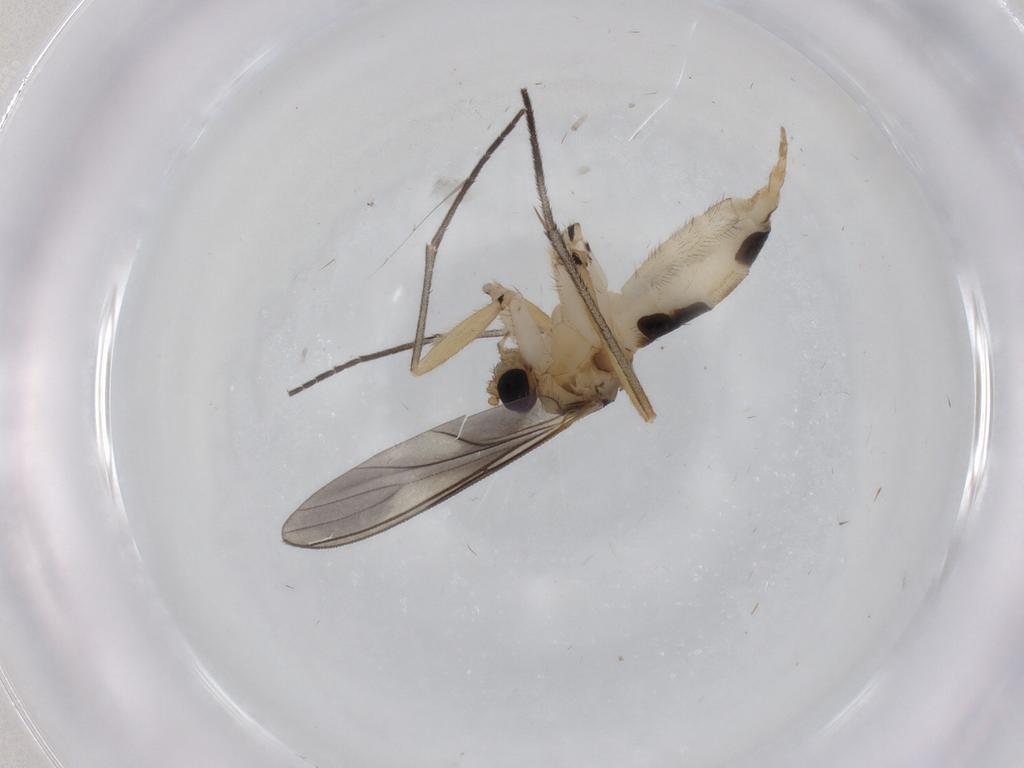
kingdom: Animalia
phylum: Arthropoda
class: Insecta
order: Diptera
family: Sciaridae
